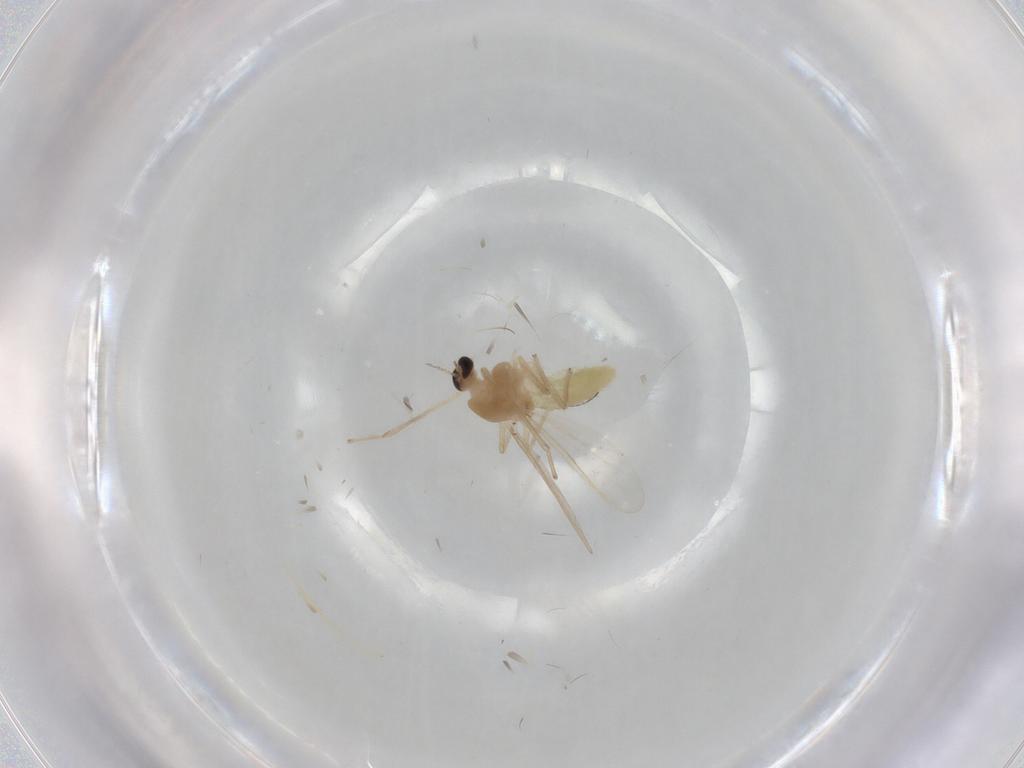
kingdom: Animalia
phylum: Arthropoda
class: Insecta
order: Diptera
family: Chironomidae
